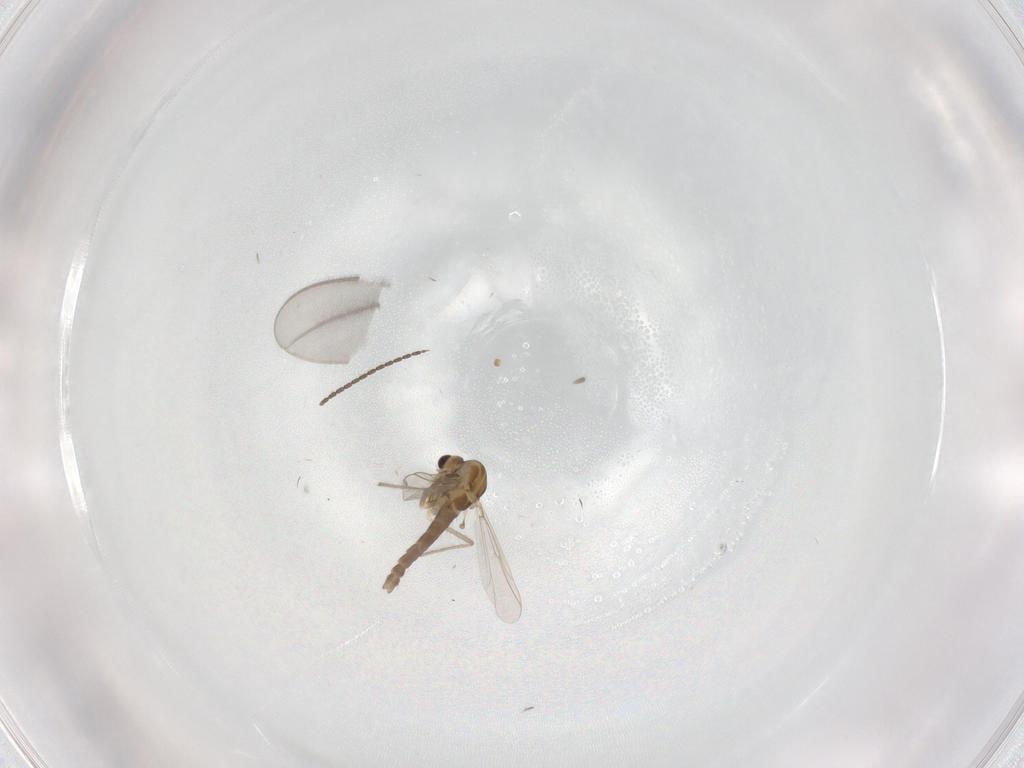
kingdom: Animalia
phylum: Arthropoda
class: Insecta
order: Diptera
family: Chironomidae
